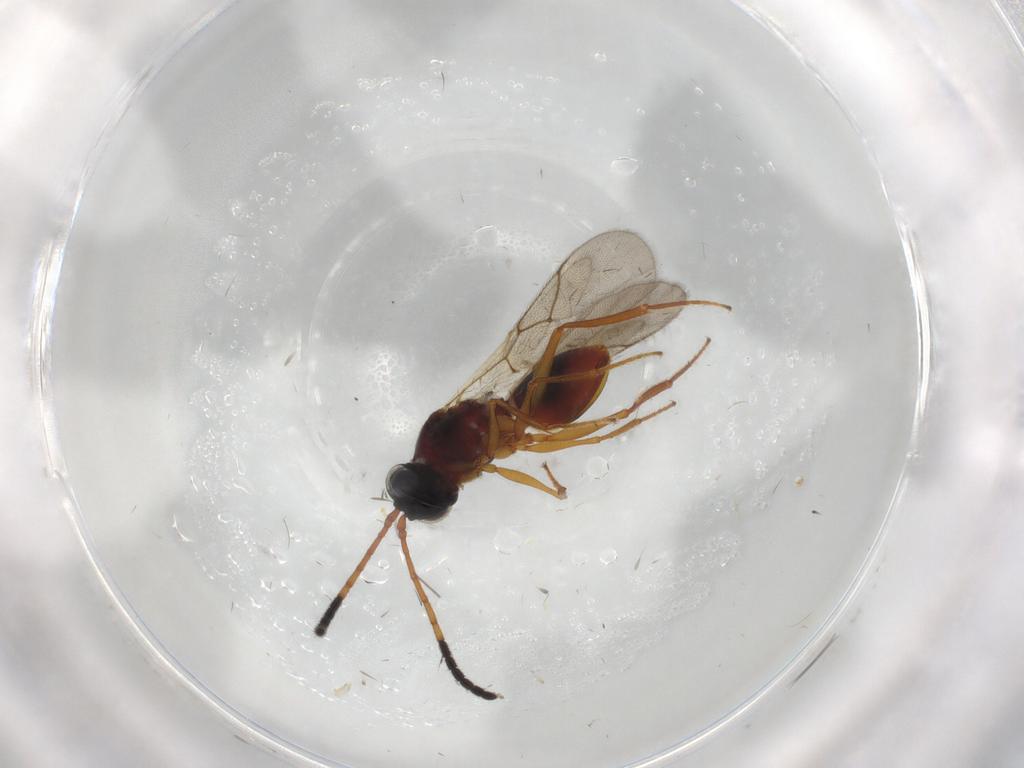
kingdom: Animalia
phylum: Arthropoda
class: Insecta
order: Hymenoptera
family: Figitidae
